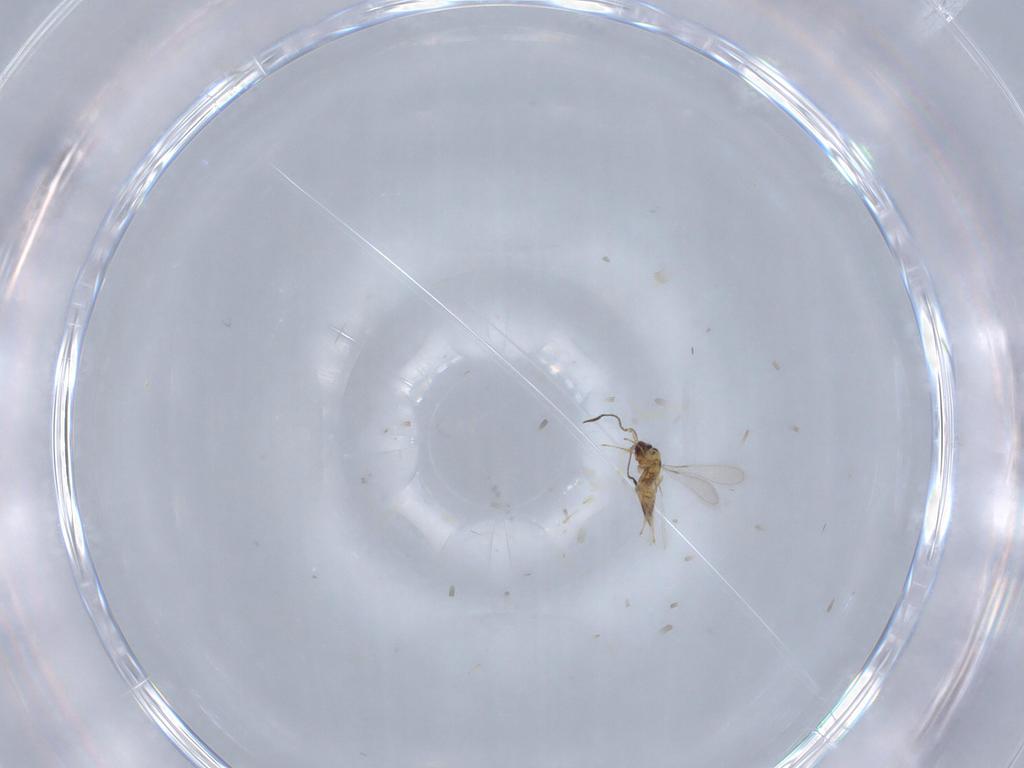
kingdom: Animalia
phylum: Arthropoda
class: Insecta
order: Hymenoptera
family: Mymaridae
